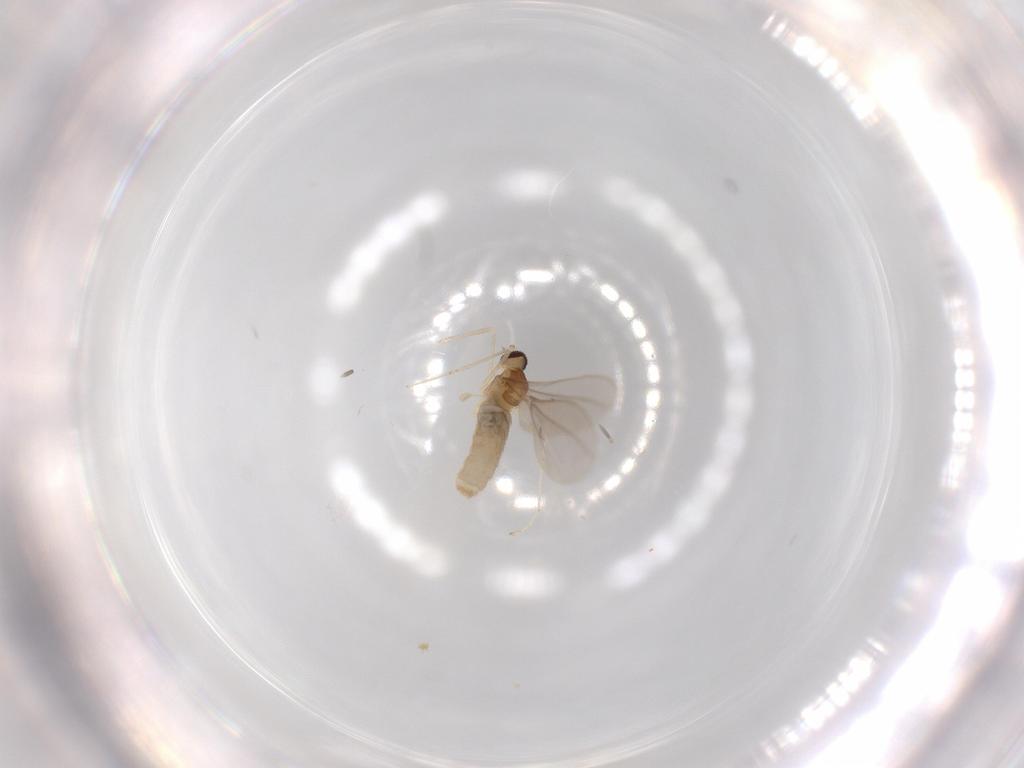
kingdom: Animalia
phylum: Arthropoda
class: Insecta
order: Diptera
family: Cecidomyiidae
